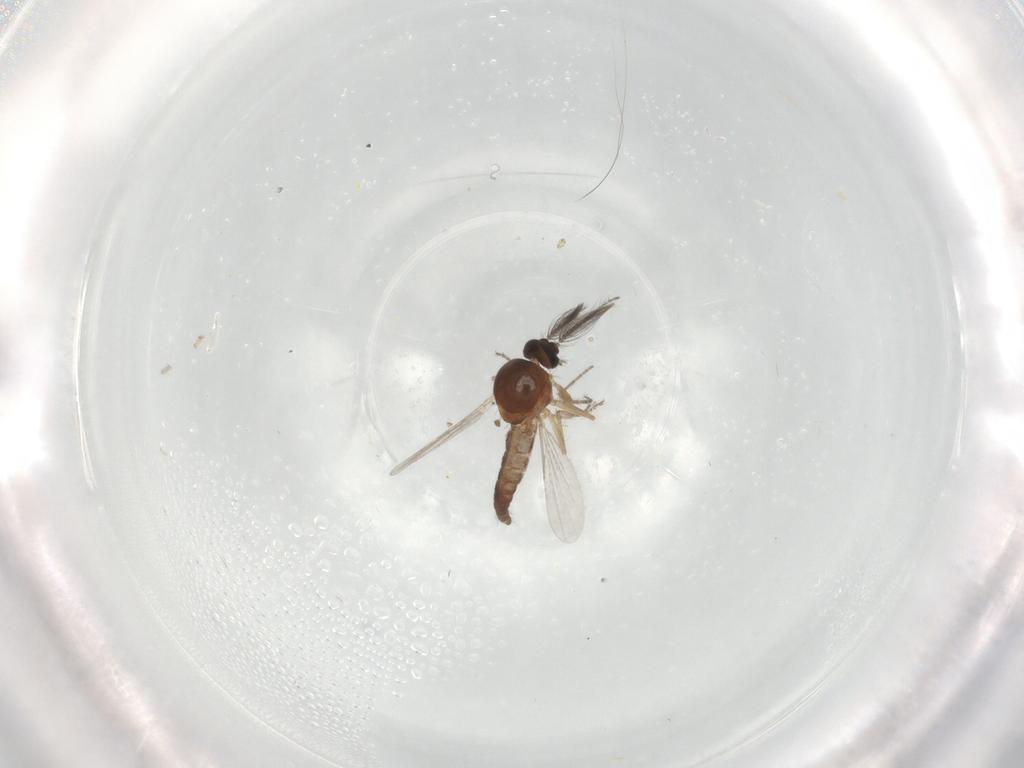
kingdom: Animalia
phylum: Arthropoda
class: Insecta
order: Diptera
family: Ceratopogonidae
